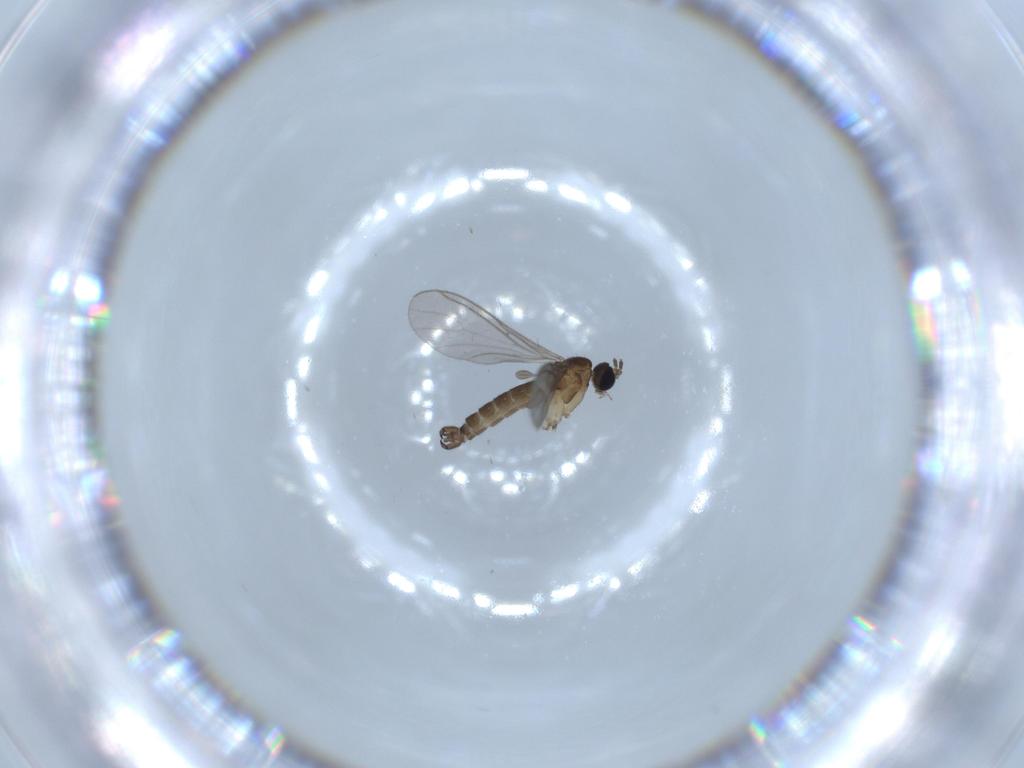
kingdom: Animalia
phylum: Arthropoda
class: Insecta
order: Diptera
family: Sciaridae
